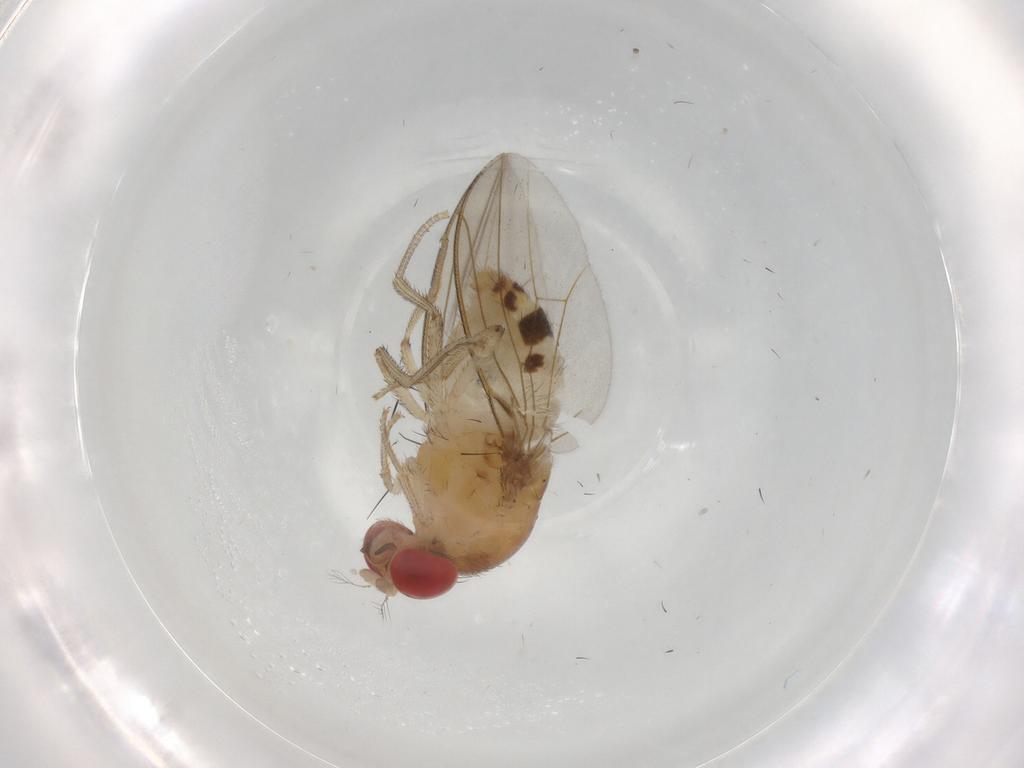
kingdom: Animalia
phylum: Arthropoda
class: Insecta
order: Diptera
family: Drosophilidae
